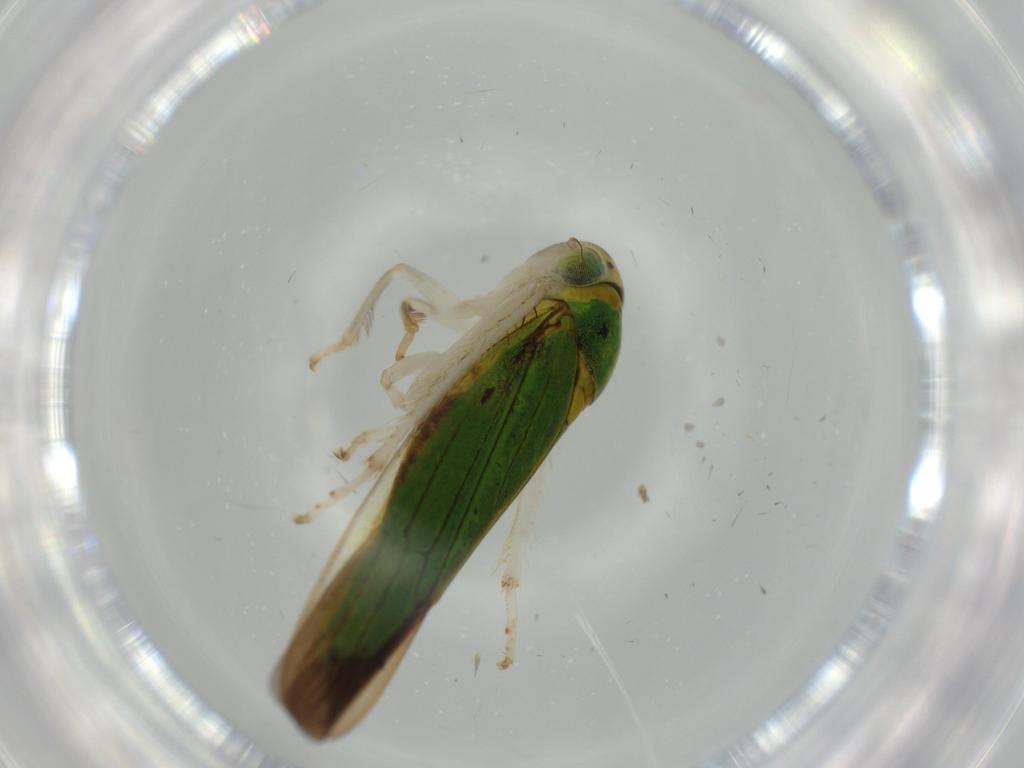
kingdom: Animalia
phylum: Arthropoda
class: Insecta
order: Hemiptera
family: Cicadellidae
